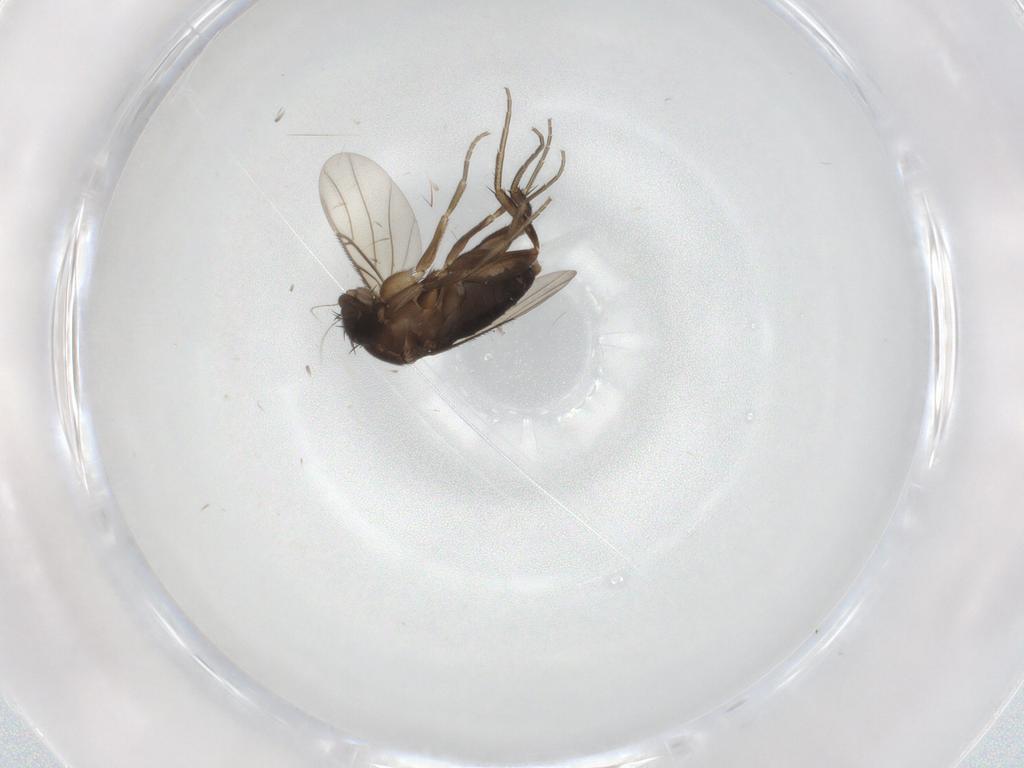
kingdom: Animalia
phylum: Arthropoda
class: Insecta
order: Diptera
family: Phoridae
